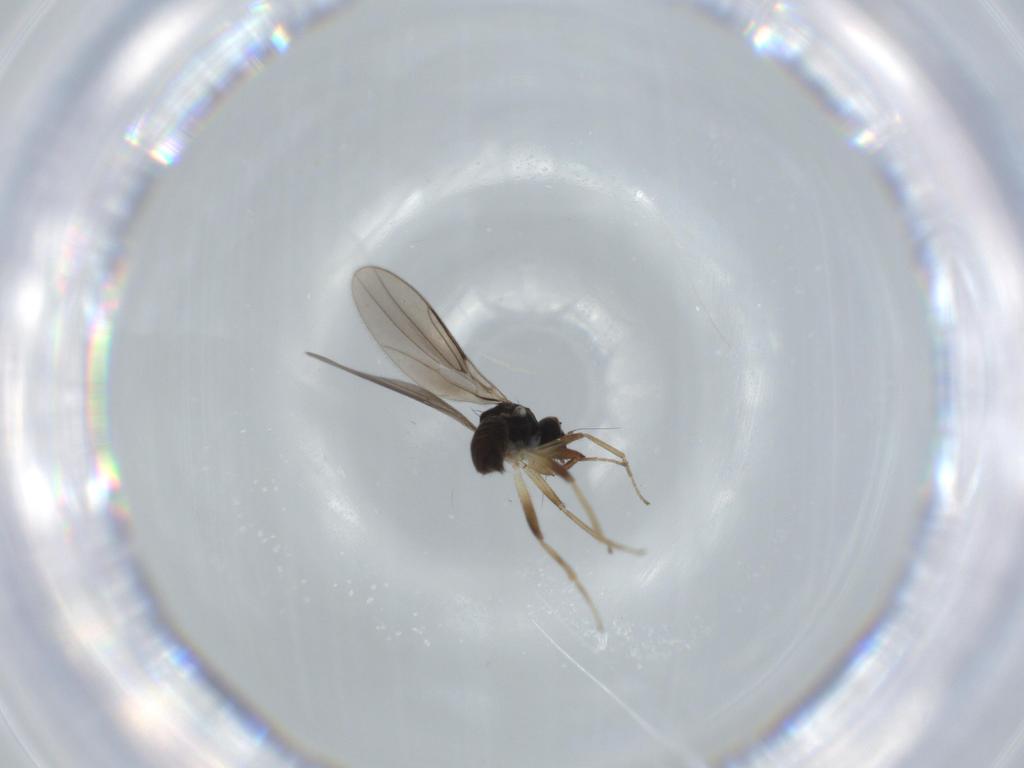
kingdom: Animalia
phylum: Arthropoda
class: Insecta
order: Diptera
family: Hybotidae
